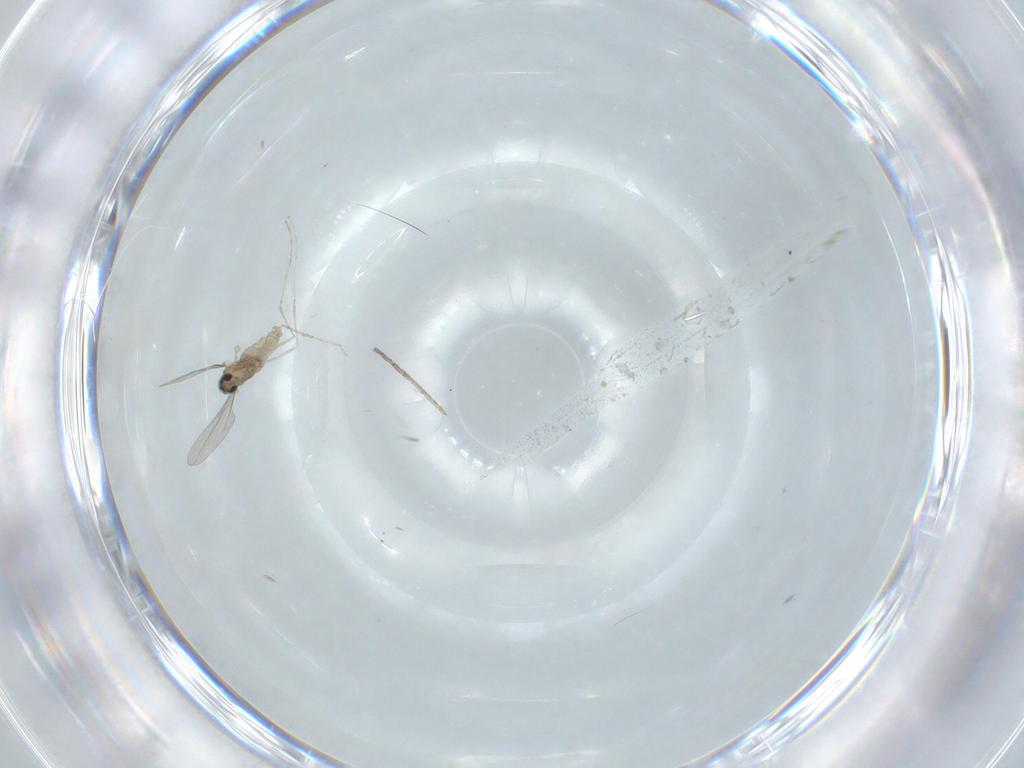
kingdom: Animalia
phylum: Arthropoda
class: Insecta
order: Diptera
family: Cecidomyiidae
